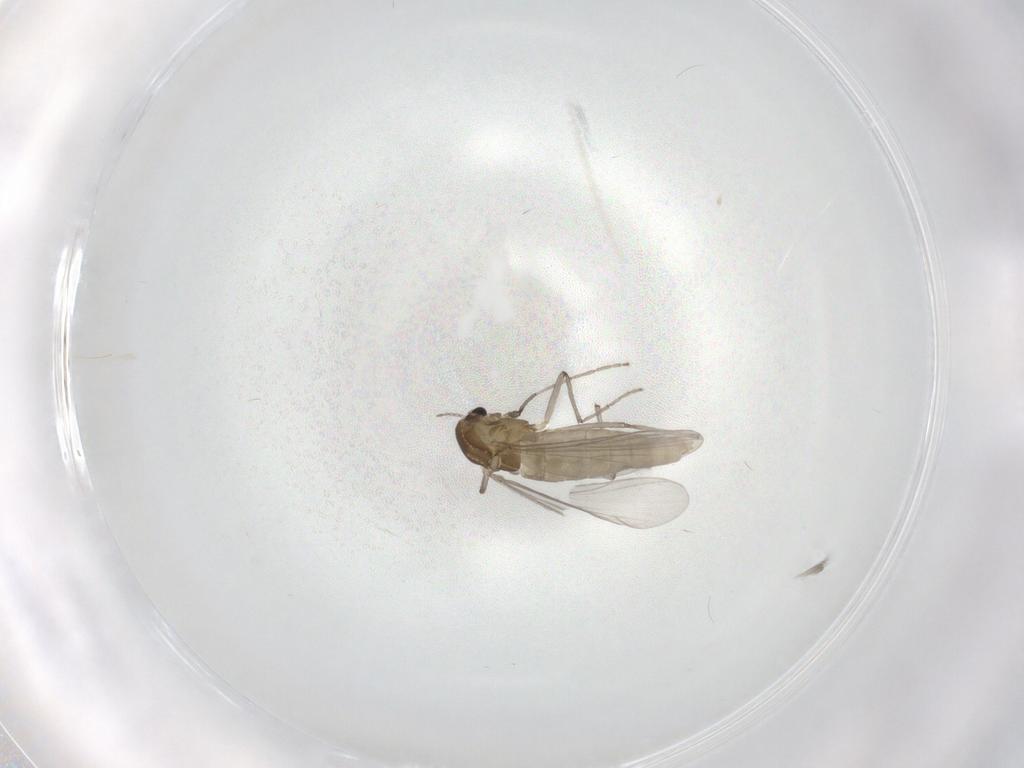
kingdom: Animalia
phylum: Arthropoda
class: Insecta
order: Diptera
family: Chironomidae
